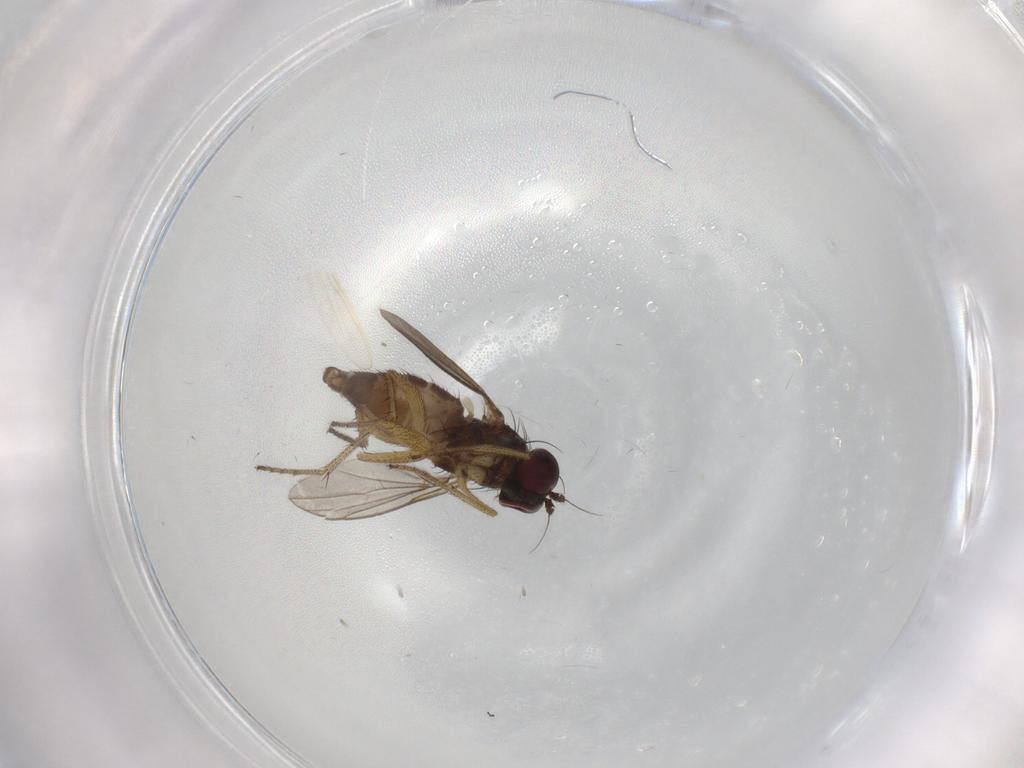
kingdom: Animalia
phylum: Arthropoda
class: Insecta
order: Diptera
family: Dolichopodidae
